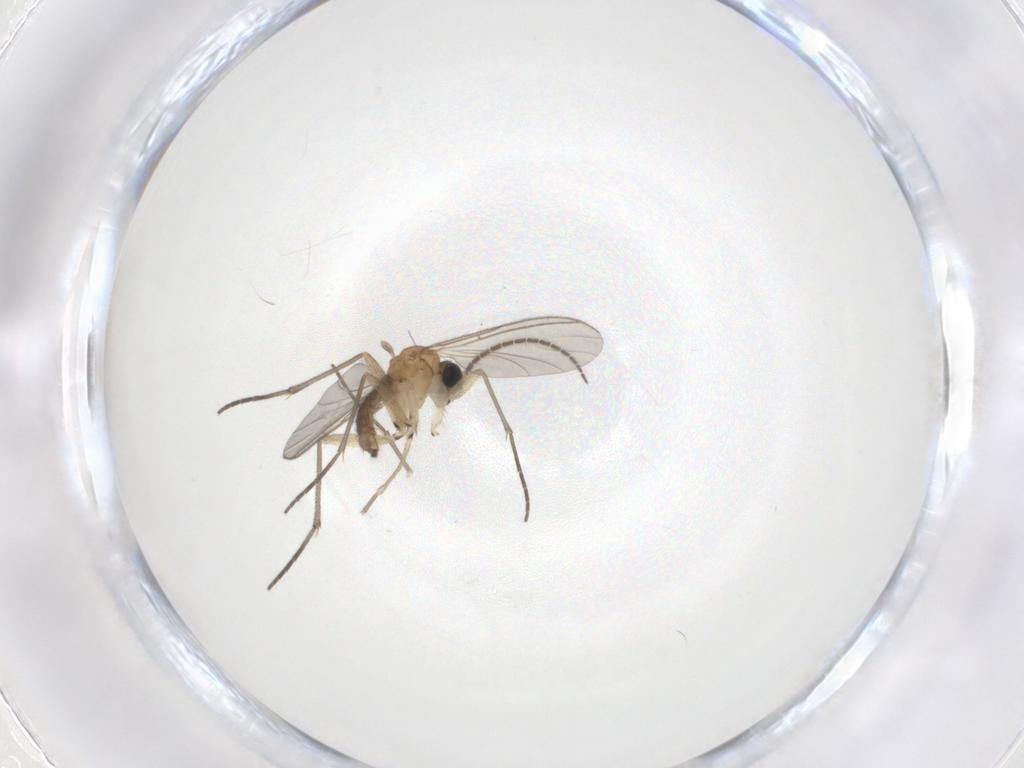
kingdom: Animalia
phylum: Arthropoda
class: Insecta
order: Diptera
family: Sciaridae
